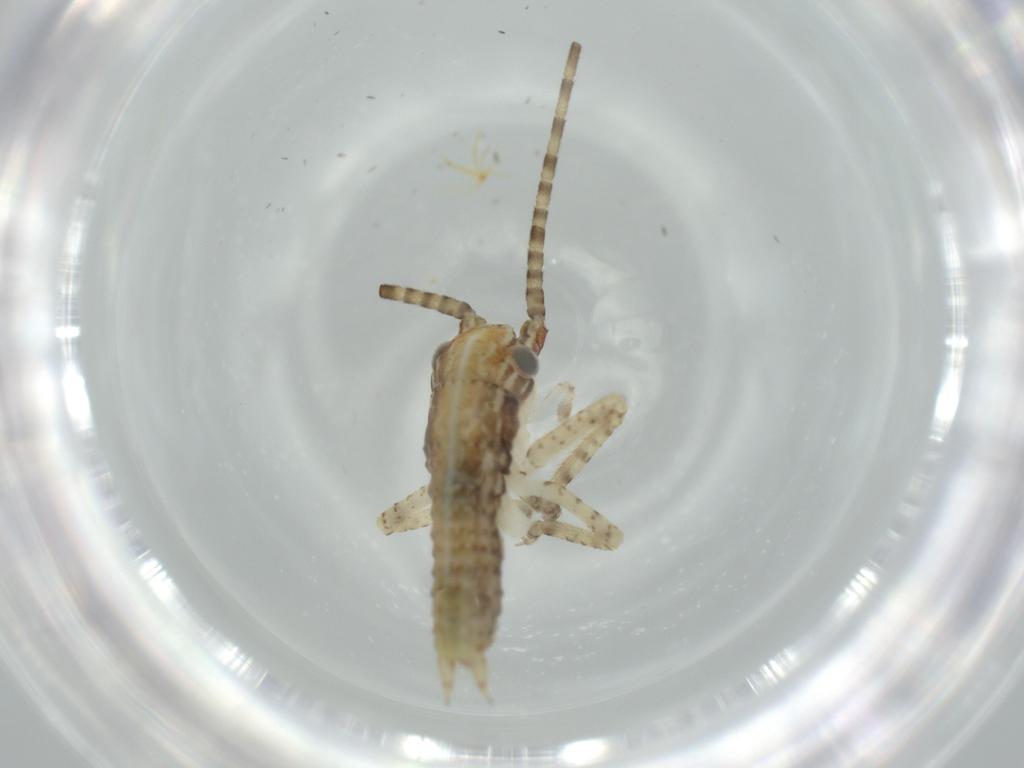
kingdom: Animalia
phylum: Arthropoda
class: Insecta
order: Orthoptera
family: Gryllidae
